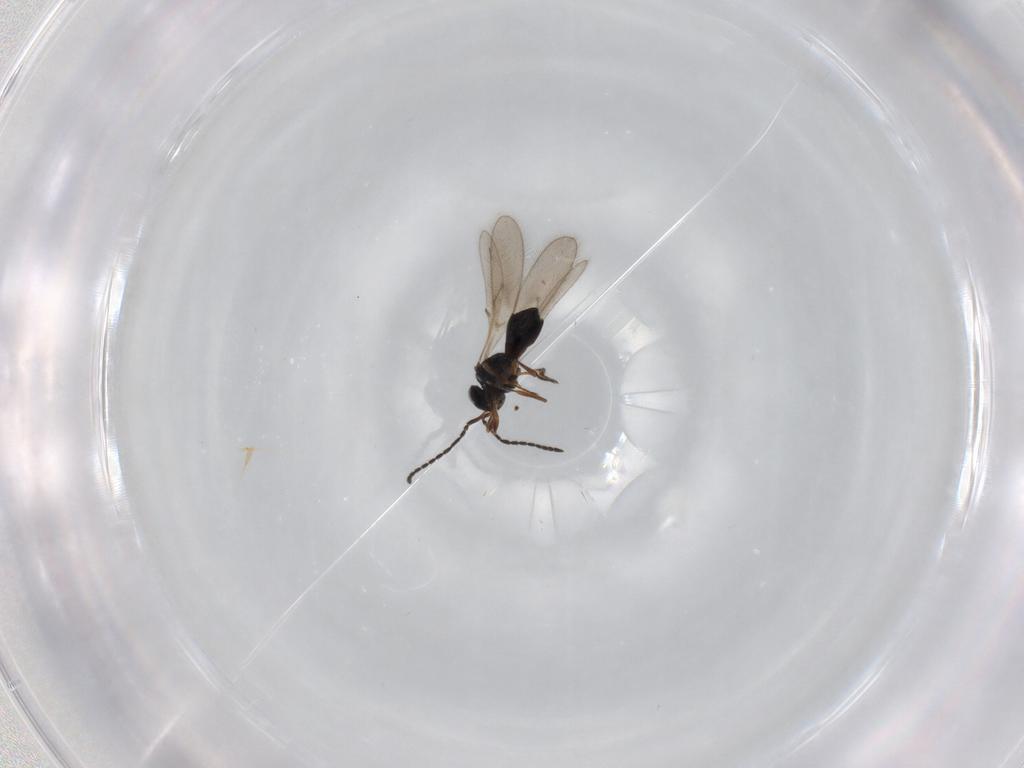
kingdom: Animalia
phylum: Arthropoda
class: Insecta
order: Hymenoptera
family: Scelionidae
